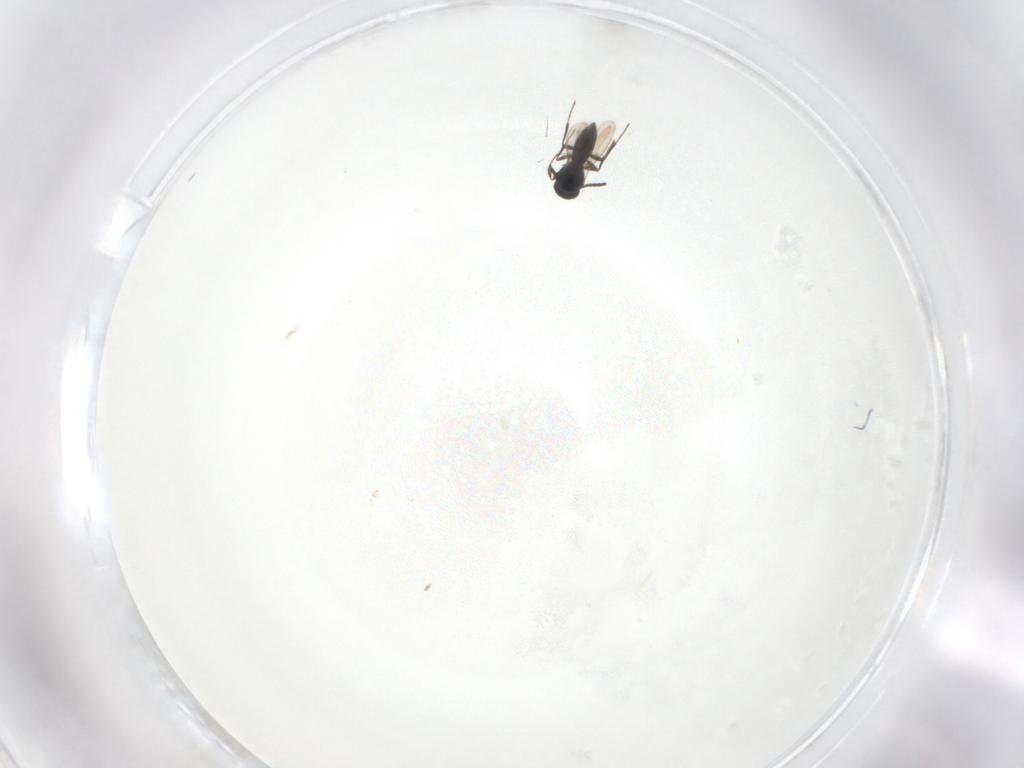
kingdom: Animalia
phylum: Arthropoda
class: Insecta
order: Hymenoptera
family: Scelionidae
